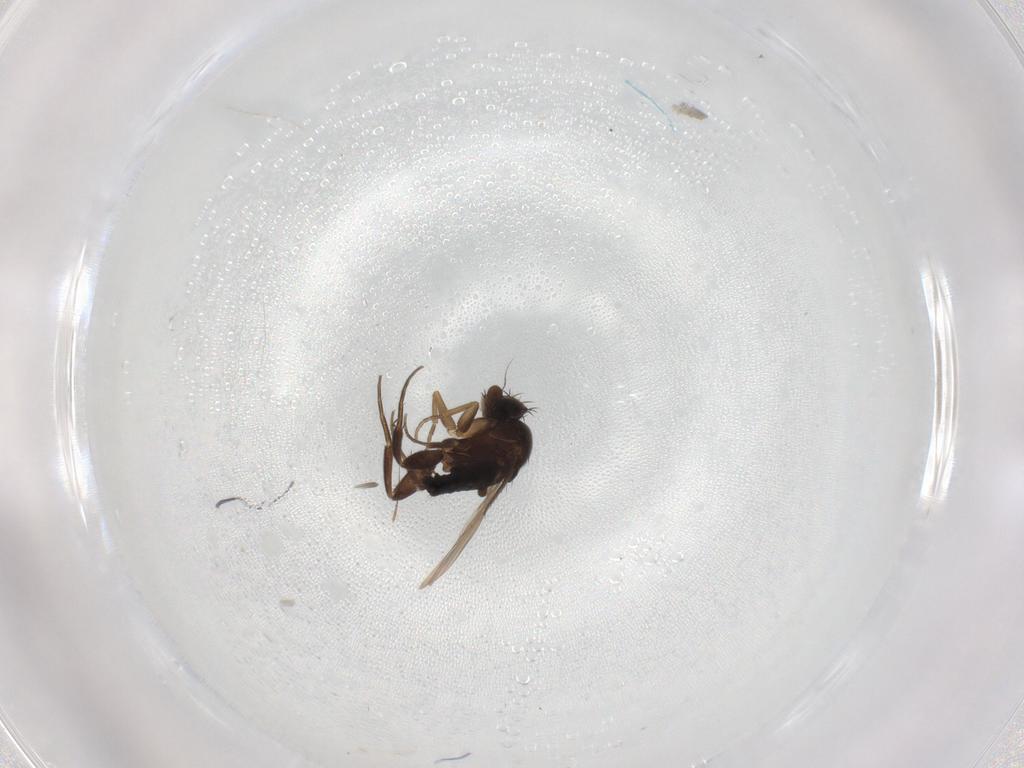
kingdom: Animalia
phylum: Arthropoda
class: Insecta
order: Diptera
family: Phoridae
